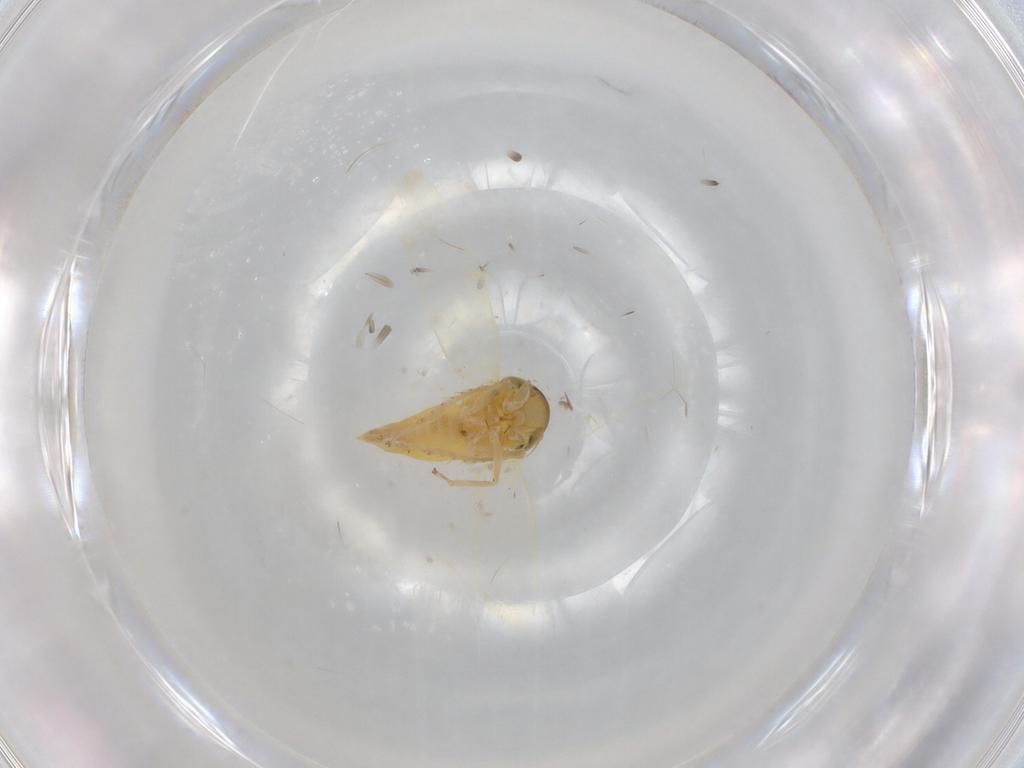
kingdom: Animalia
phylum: Arthropoda
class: Insecta
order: Hemiptera
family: Cicadellidae
